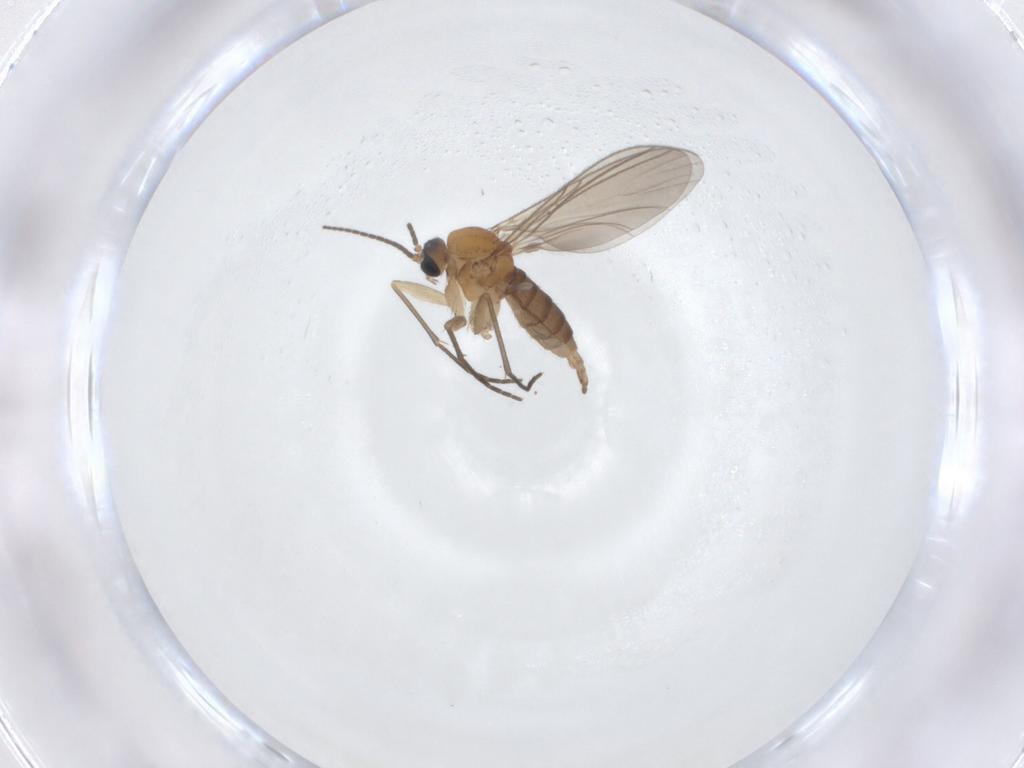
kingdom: Animalia
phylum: Arthropoda
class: Insecta
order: Diptera
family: Sciaridae
